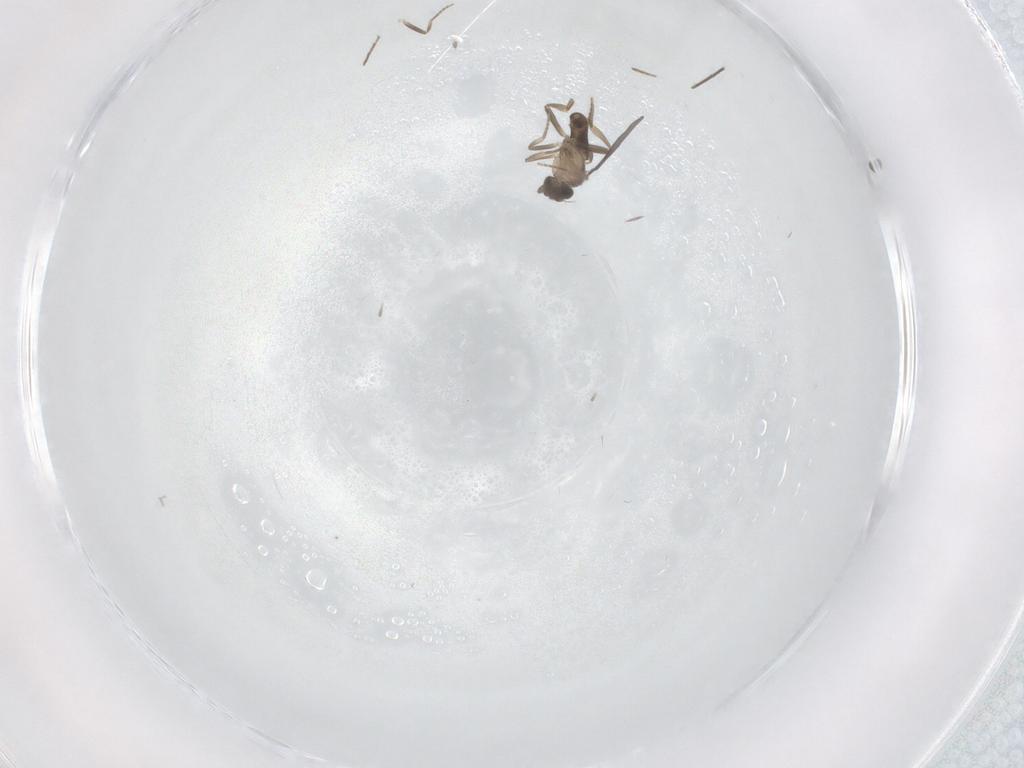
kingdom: Animalia
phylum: Arthropoda
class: Insecta
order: Diptera
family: Chironomidae
